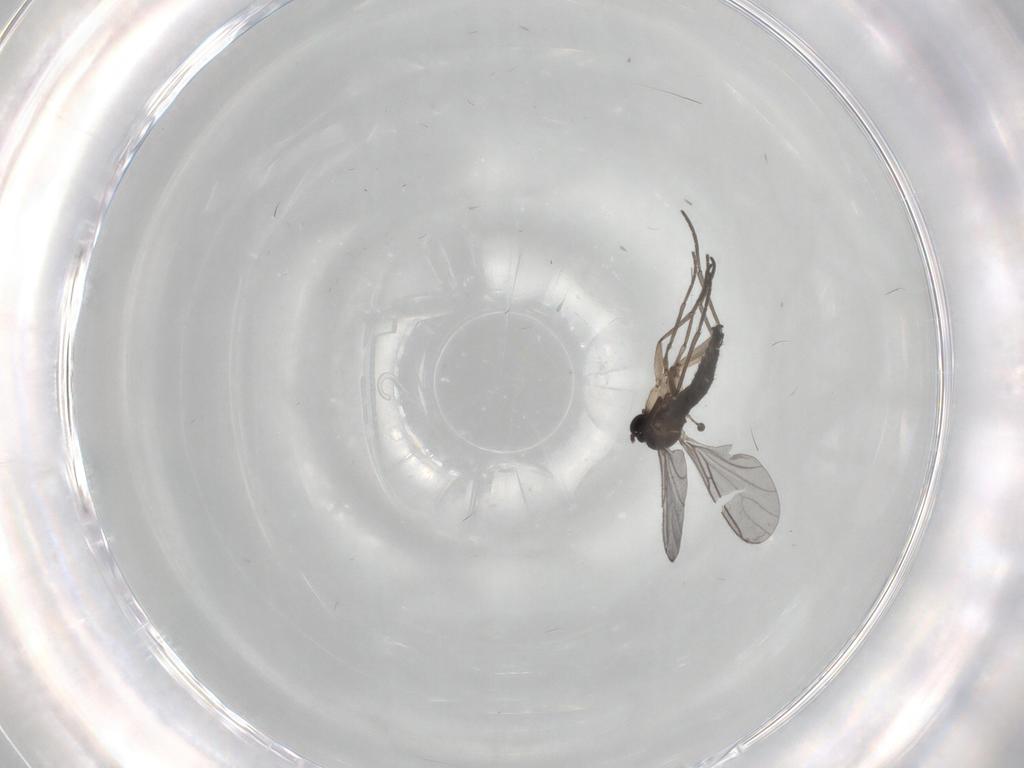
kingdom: Animalia
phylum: Arthropoda
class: Insecta
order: Diptera
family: Sciaridae
